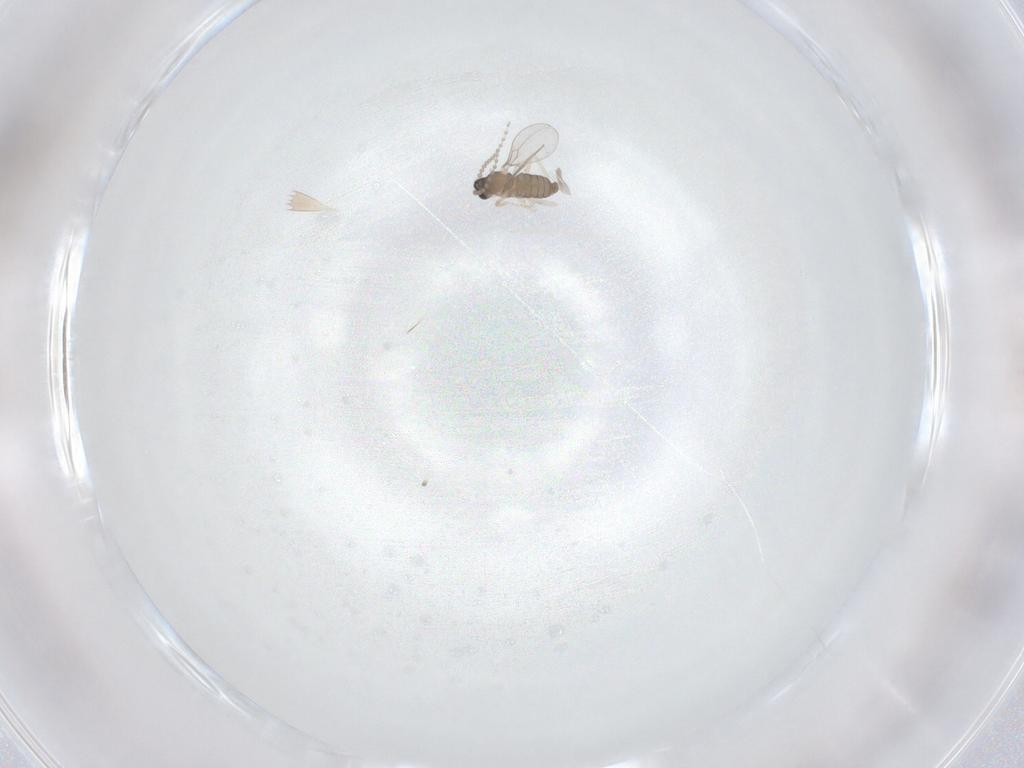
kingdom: Animalia
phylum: Arthropoda
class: Insecta
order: Diptera
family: Cecidomyiidae
